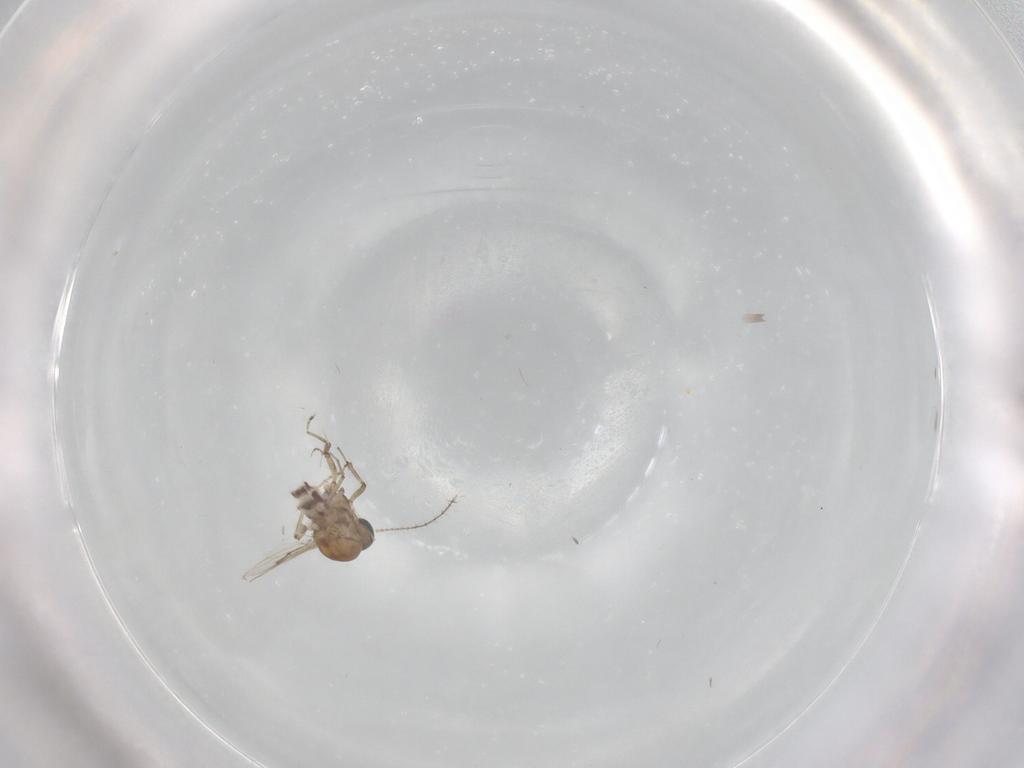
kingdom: Animalia
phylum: Arthropoda
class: Insecta
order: Diptera
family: Ceratopogonidae
